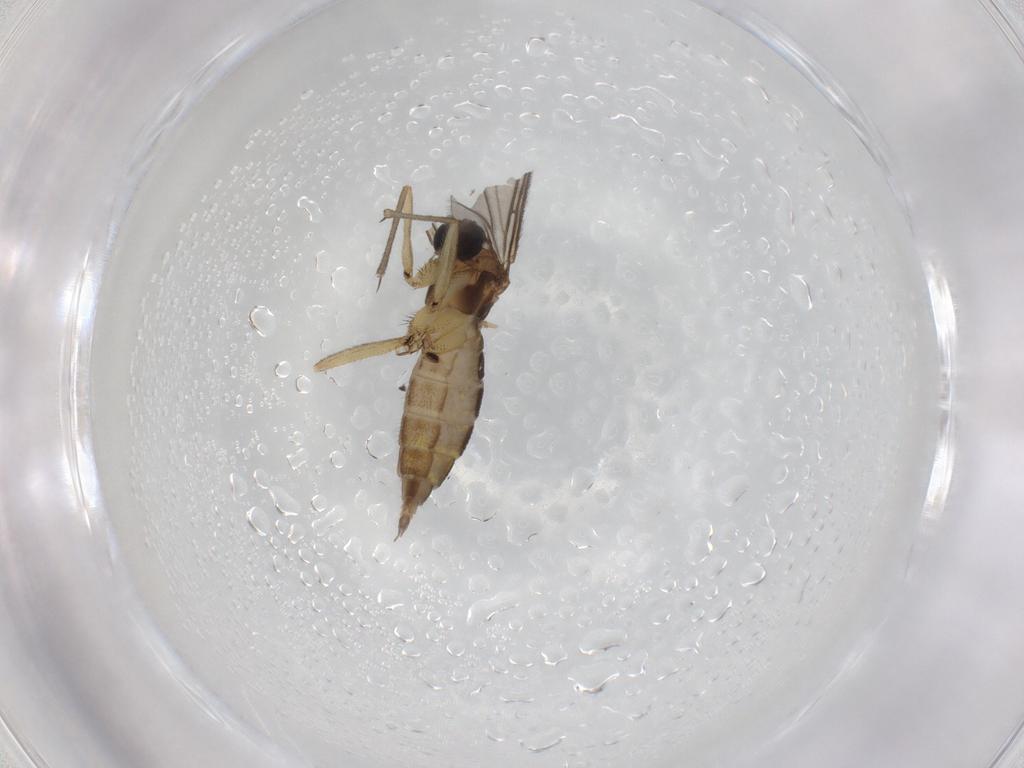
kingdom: Animalia
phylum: Arthropoda
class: Insecta
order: Diptera
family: Sciaridae
